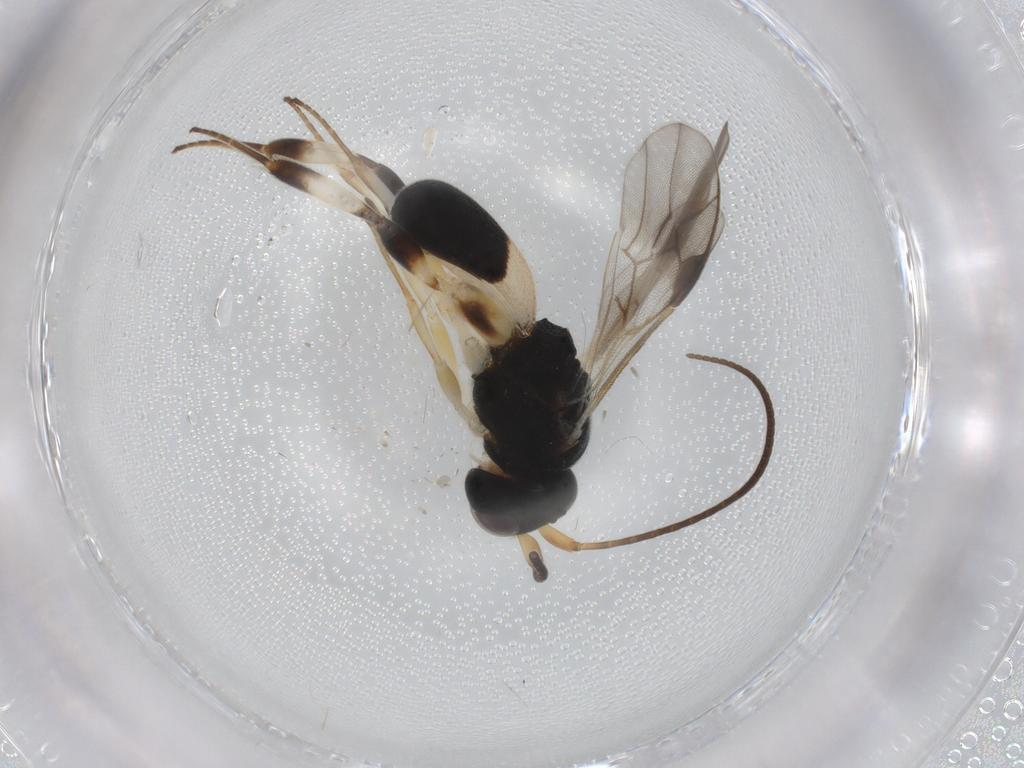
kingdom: Animalia
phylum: Arthropoda
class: Insecta
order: Hymenoptera
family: Braconidae
